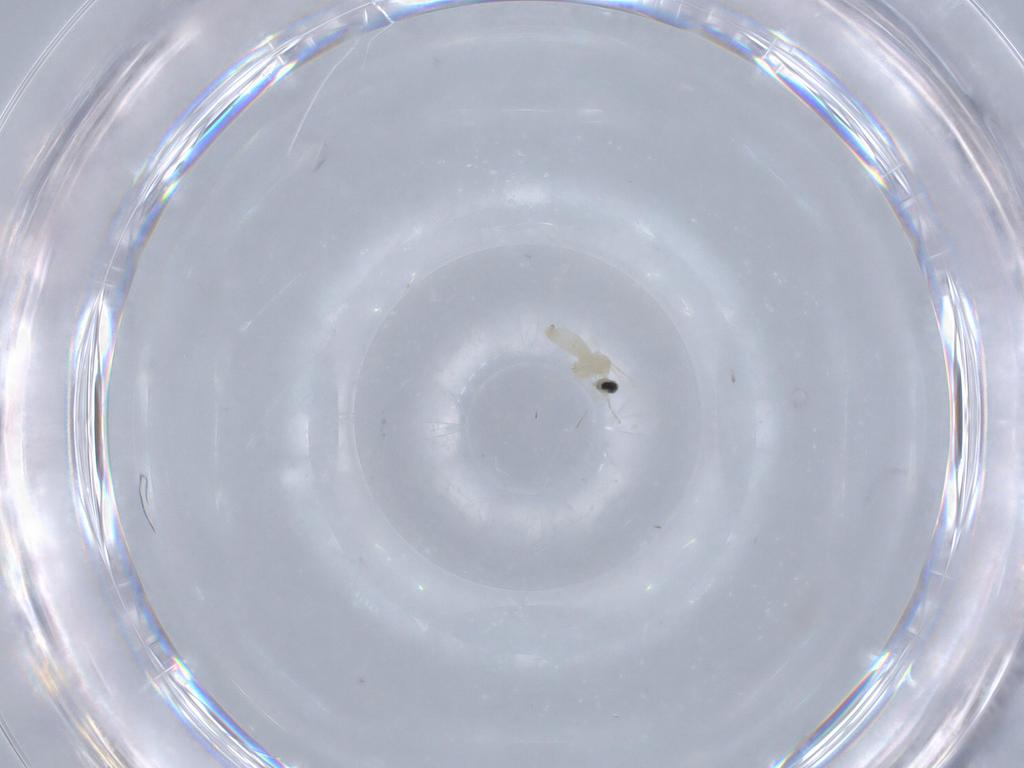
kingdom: Animalia
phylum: Arthropoda
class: Insecta
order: Diptera
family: Cecidomyiidae
